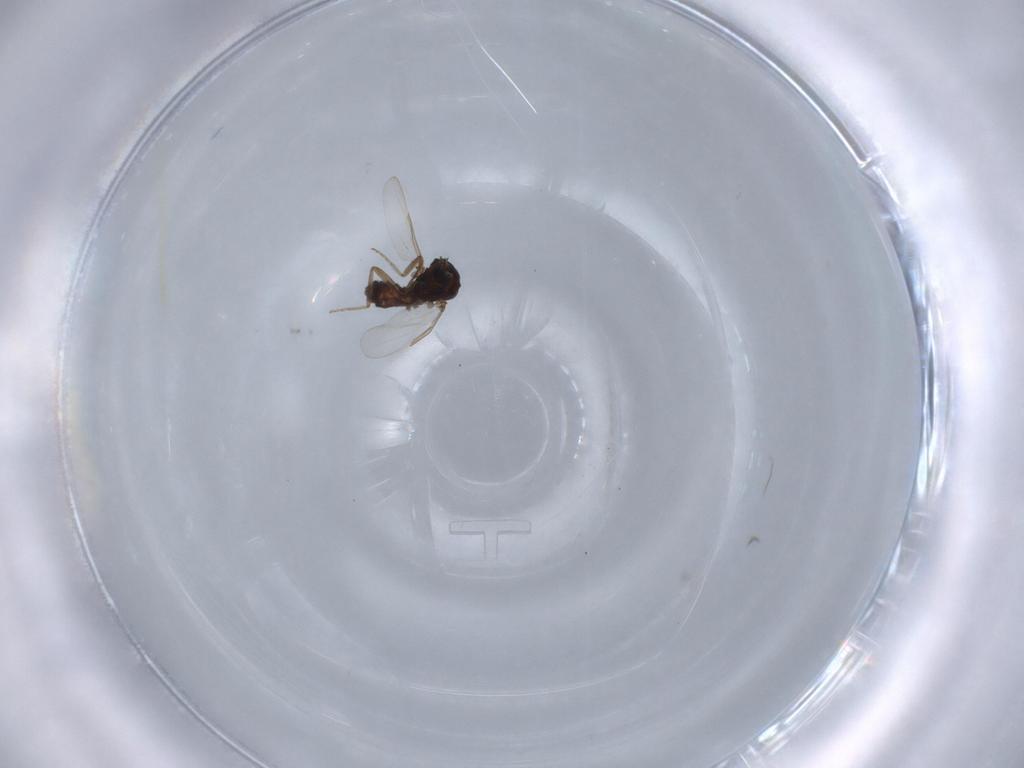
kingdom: Animalia
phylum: Arthropoda
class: Insecta
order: Diptera
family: Ceratopogonidae
